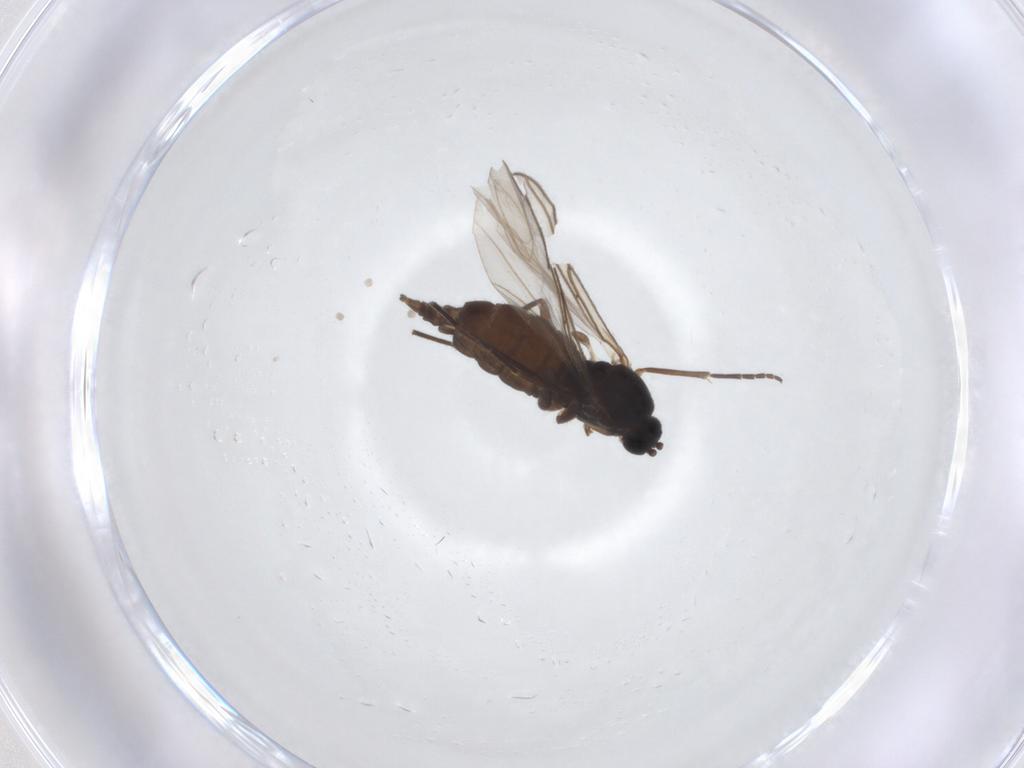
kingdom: Animalia
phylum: Arthropoda
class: Insecta
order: Diptera
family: Sciaridae
